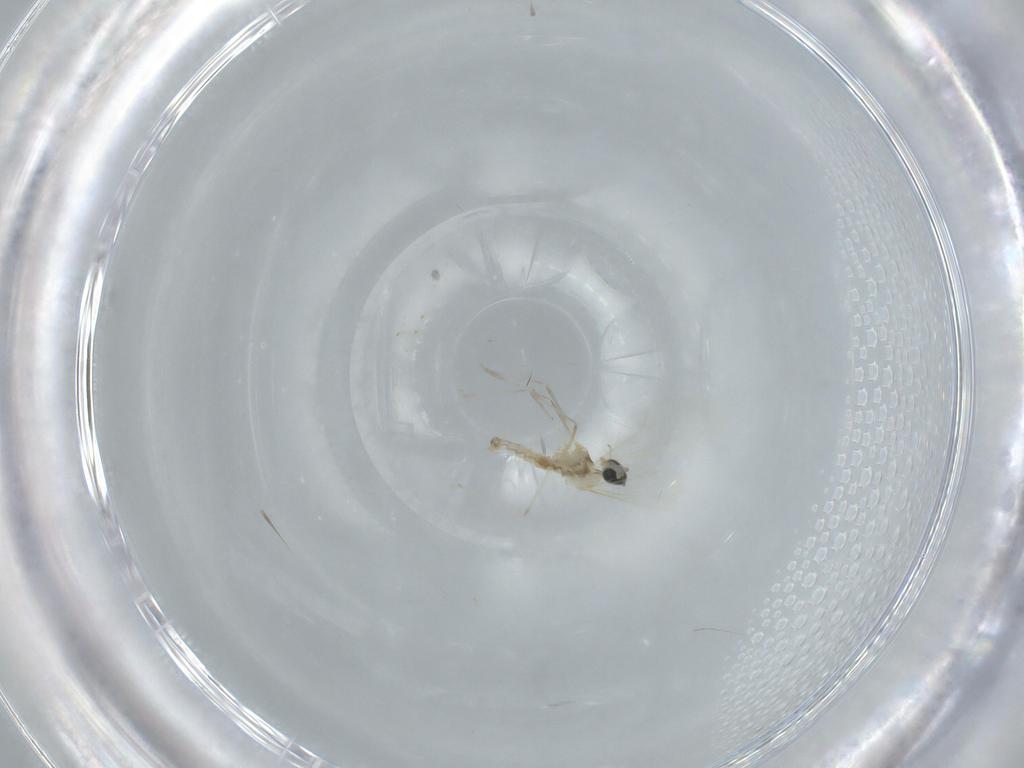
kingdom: Animalia
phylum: Arthropoda
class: Insecta
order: Diptera
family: Cecidomyiidae
